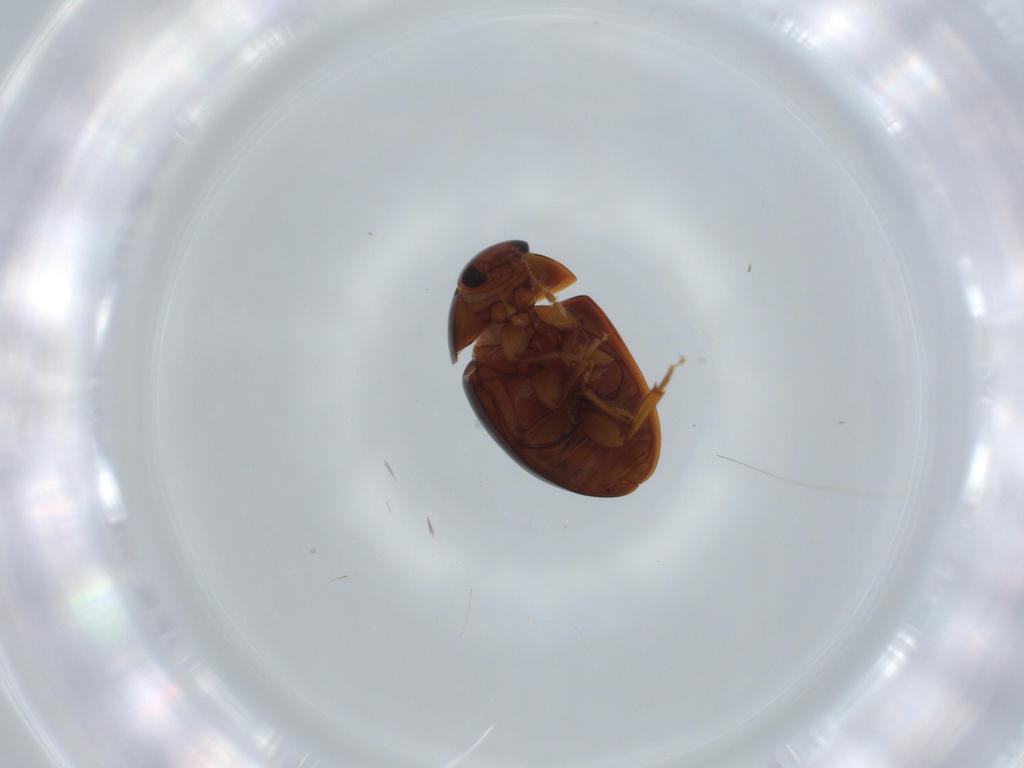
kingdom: Animalia
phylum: Arthropoda
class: Insecta
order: Coleoptera
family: Phalacridae
